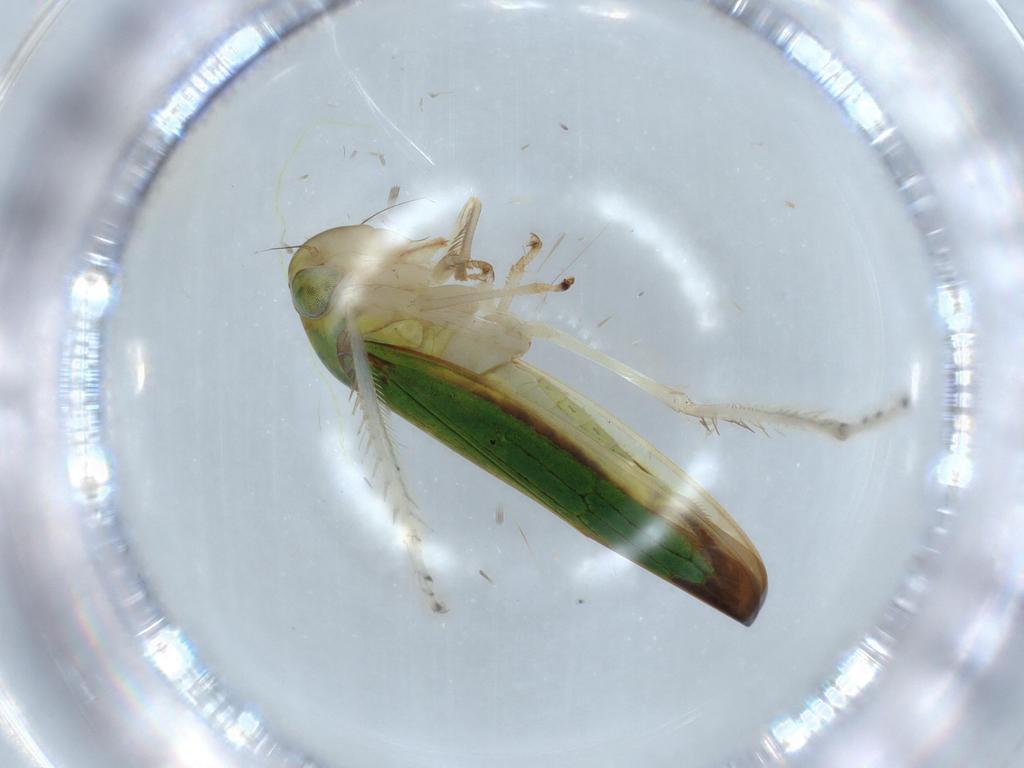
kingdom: Animalia
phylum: Arthropoda
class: Insecta
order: Hemiptera
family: Cicadellidae
